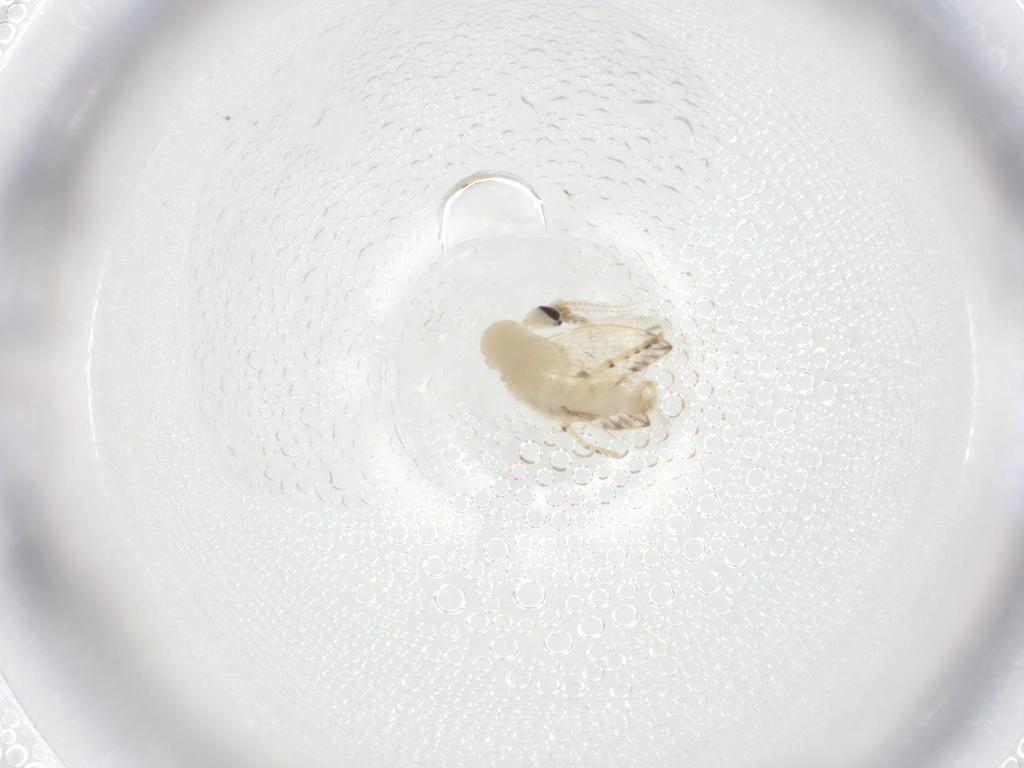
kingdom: Animalia
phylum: Arthropoda
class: Insecta
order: Diptera
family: Psychodidae
